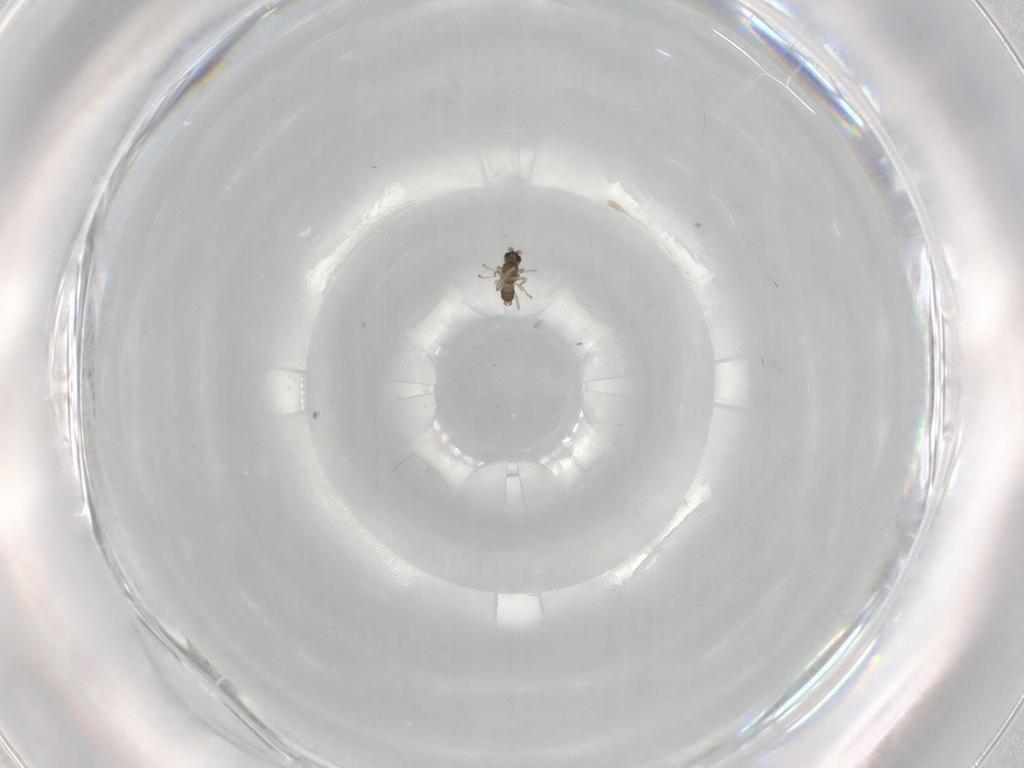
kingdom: Animalia
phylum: Arthropoda
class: Insecta
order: Diptera
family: Cecidomyiidae
